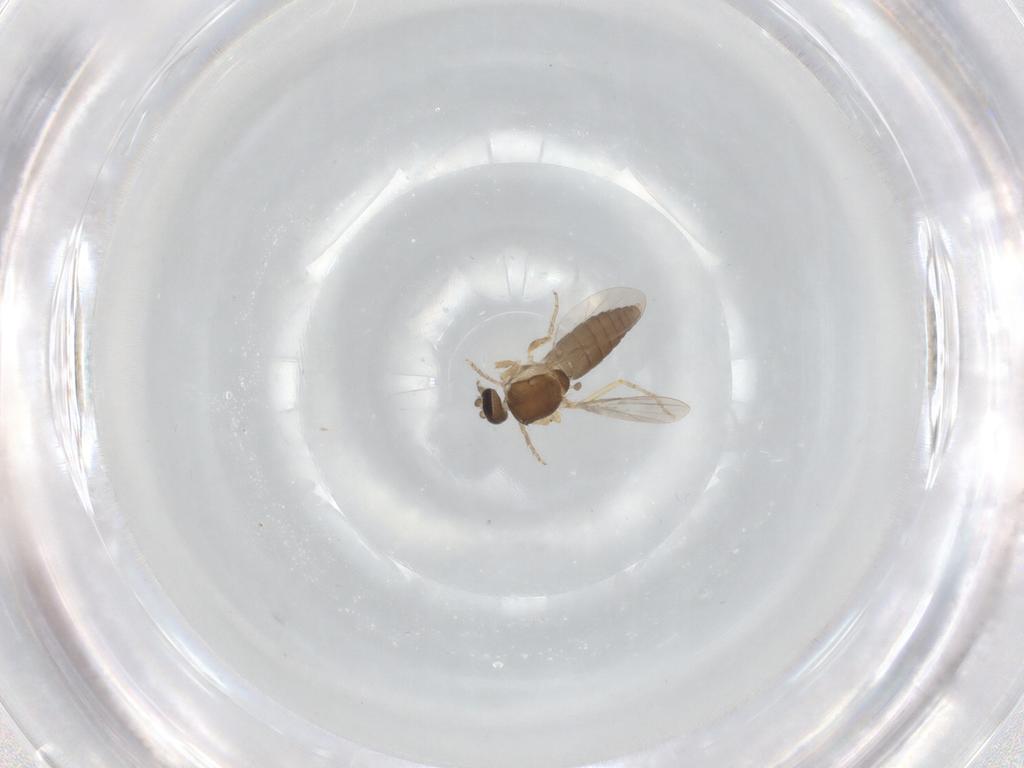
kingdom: Animalia
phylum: Arthropoda
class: Insecta
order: Diptera
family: Ceratopogonidae
